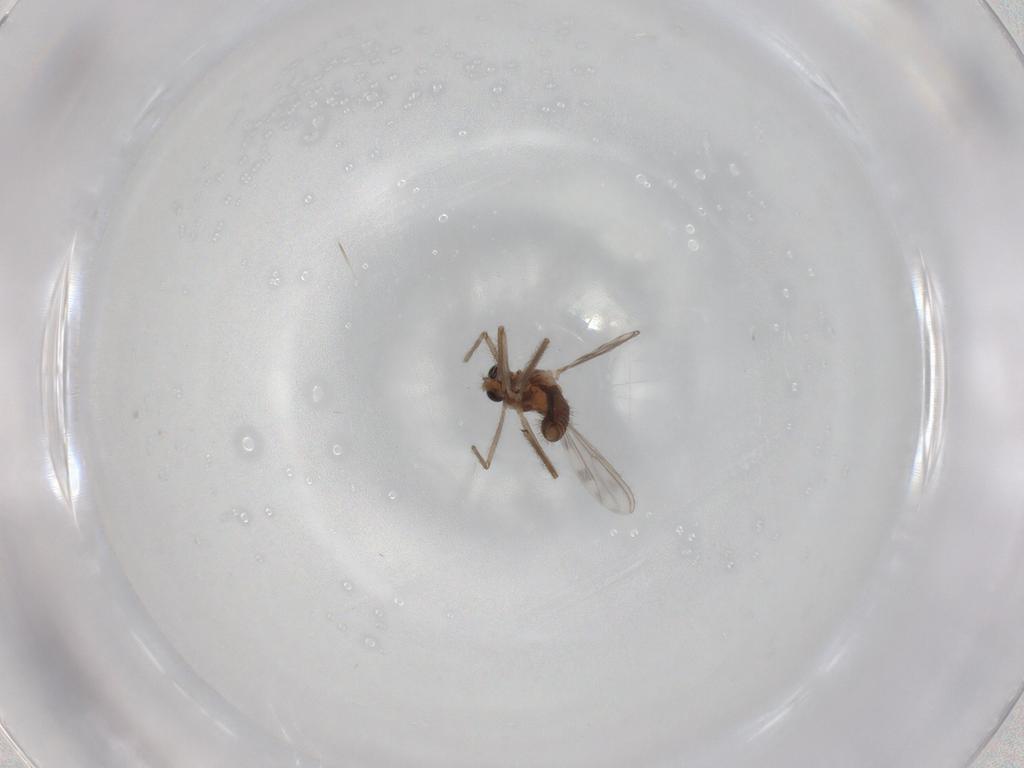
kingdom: Animalia
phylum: Arthropoda
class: Insecta
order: Diptera
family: Chironomidae
